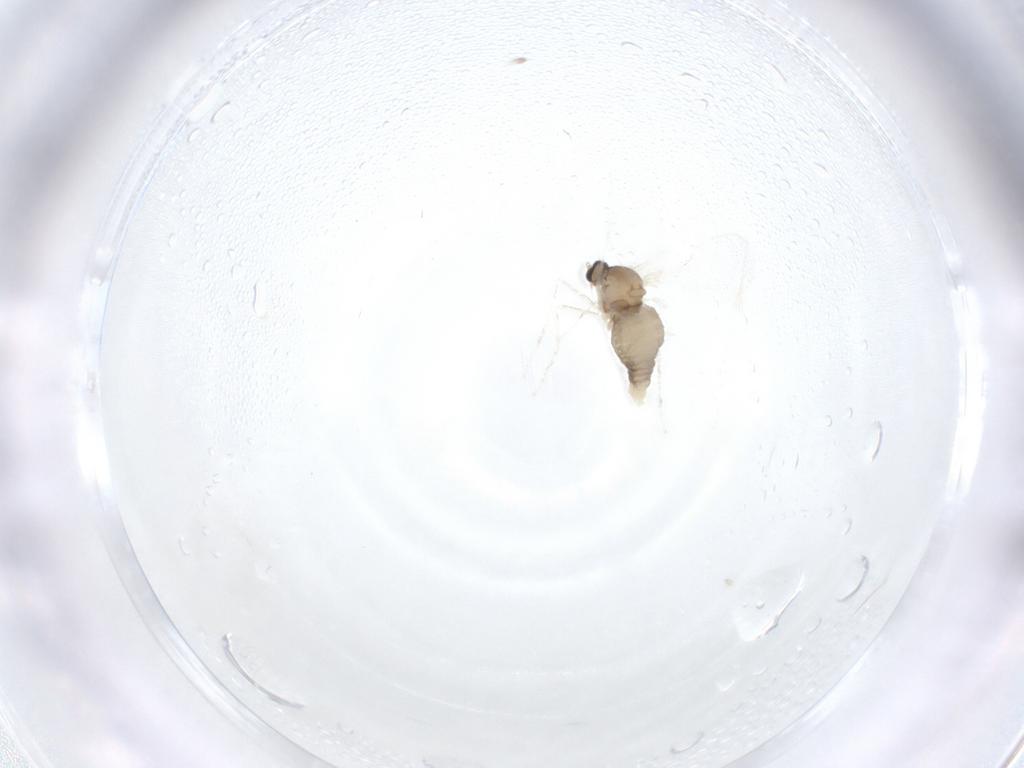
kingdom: Animalia
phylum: Arthropoda
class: Insecta
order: Diptera
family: Cecidomyiidae
